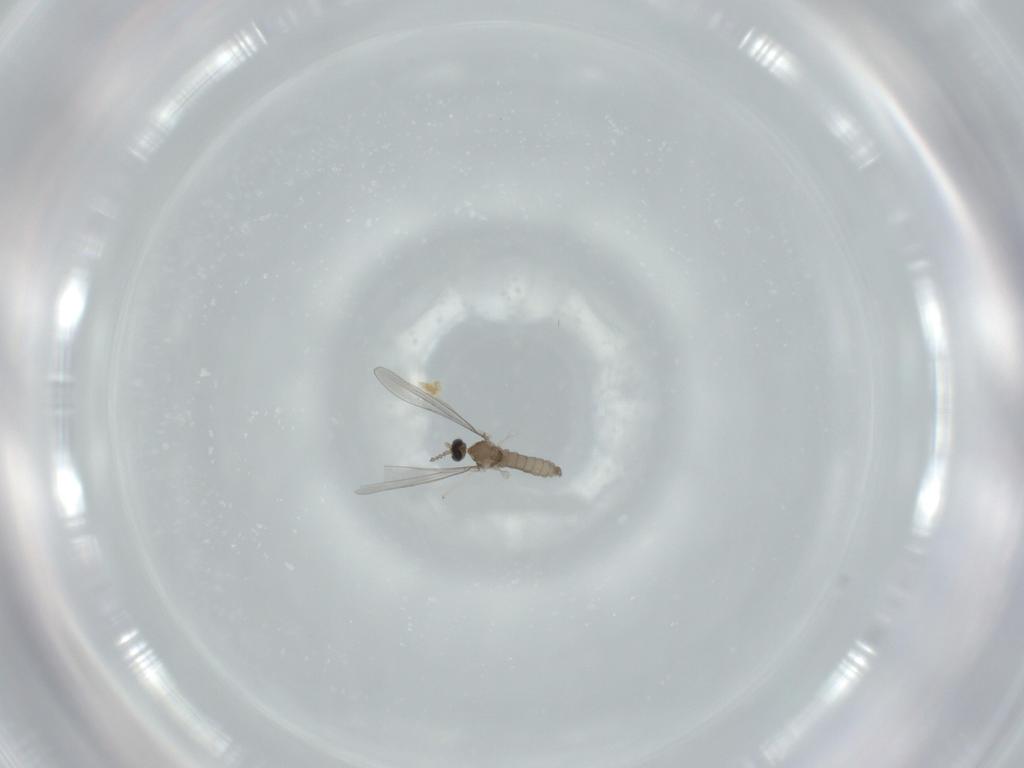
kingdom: Animalia
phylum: Arthropoda
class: Insecta
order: Diptera
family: Cecidomyiidae
